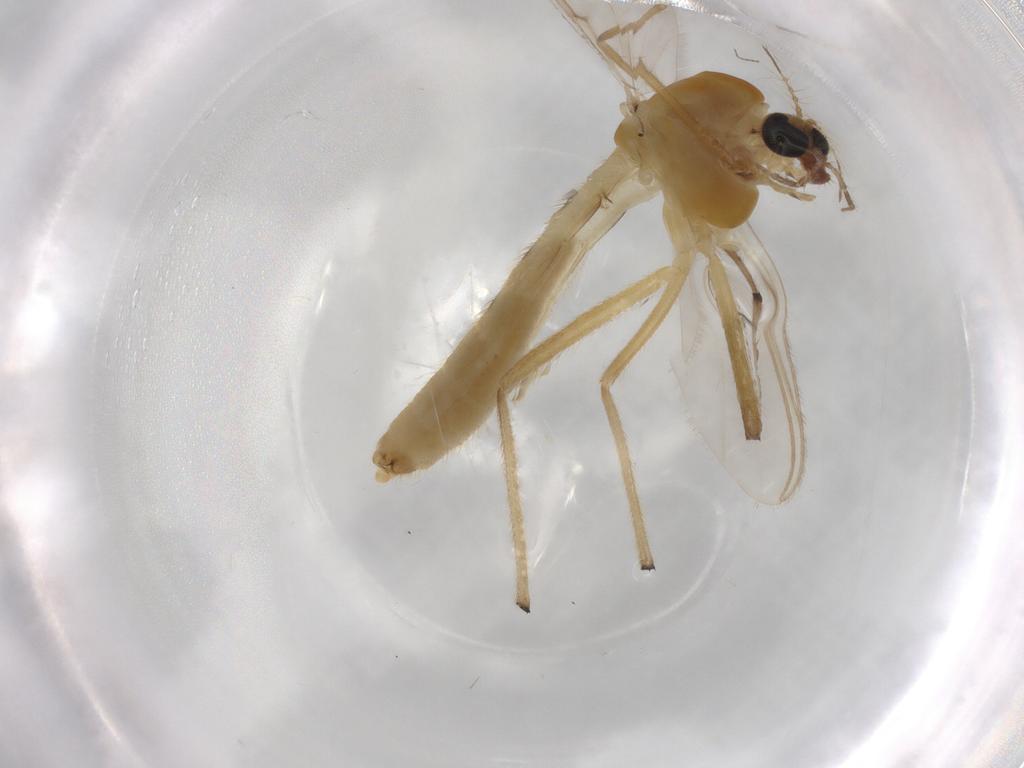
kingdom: Animalia
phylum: Arthropoda
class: Insecta
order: Diptera
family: Chironomidae
